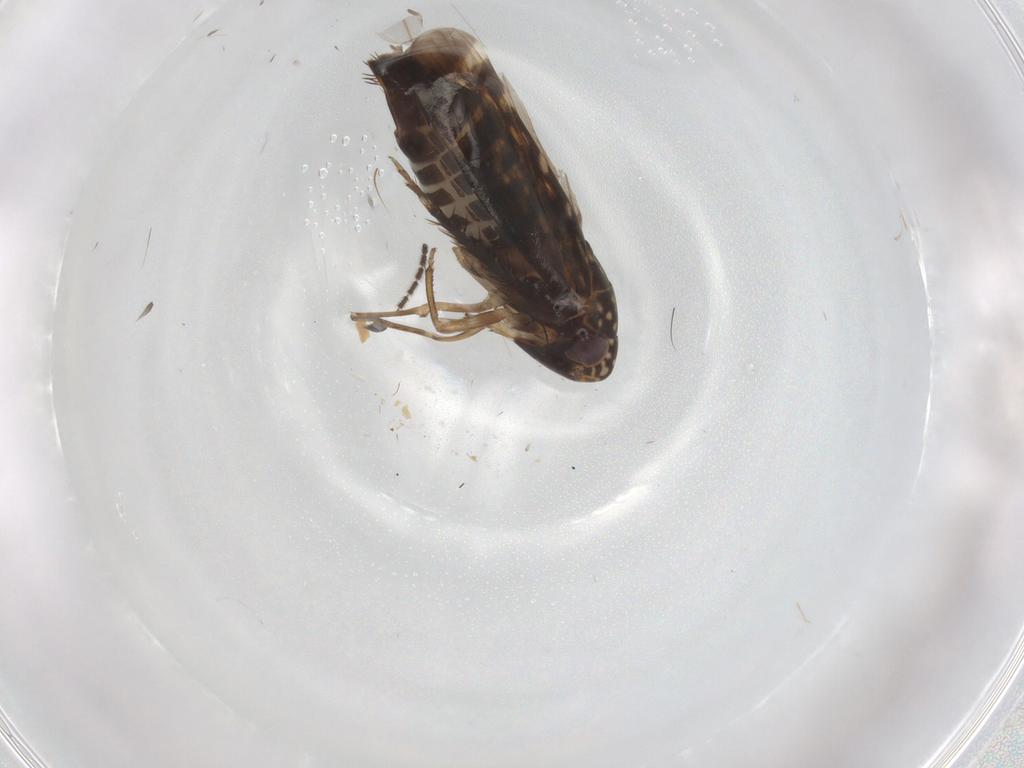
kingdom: Animalia
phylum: Arthropoda
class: Insecta
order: Hemiptera
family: Cicadellidae
